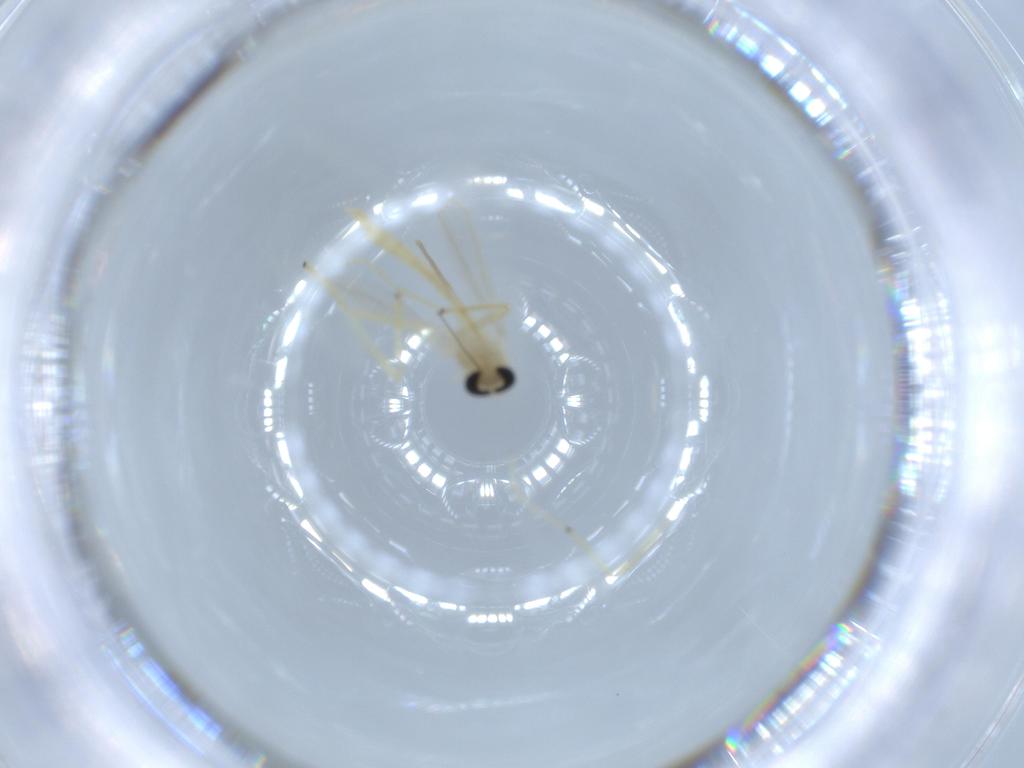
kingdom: Animalia
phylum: Arthropoda
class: Insecta
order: Diptera
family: Chironomidae
